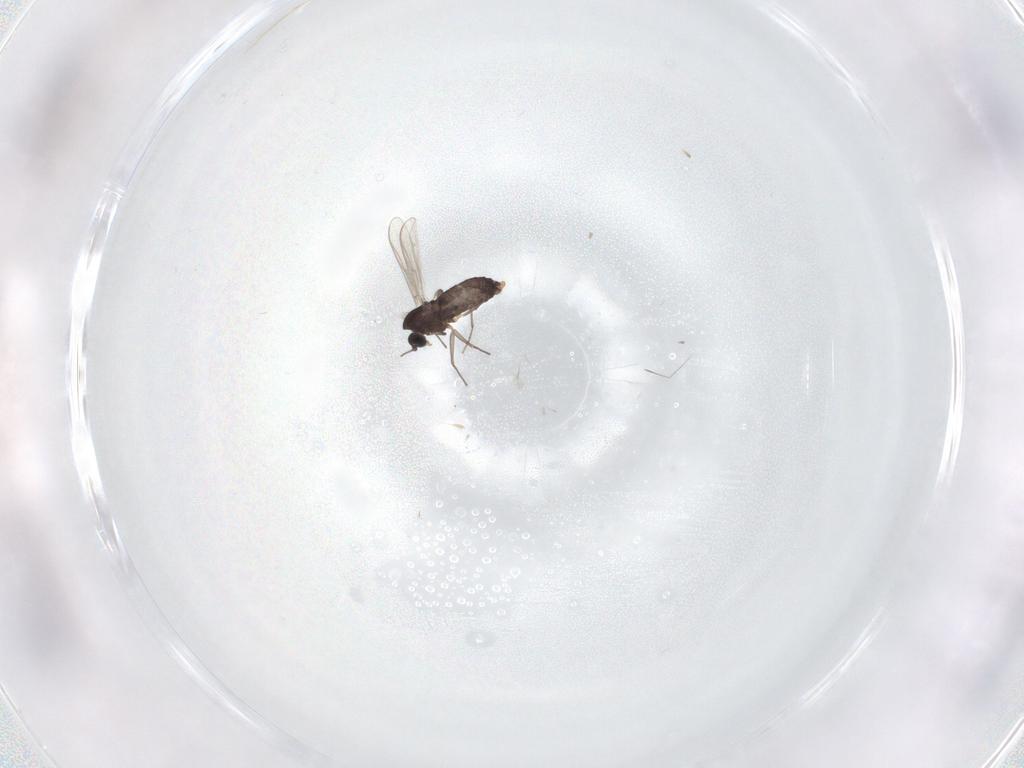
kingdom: Animalia
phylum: Arthropoda
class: Insecta
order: Diptera
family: Chironomidae
